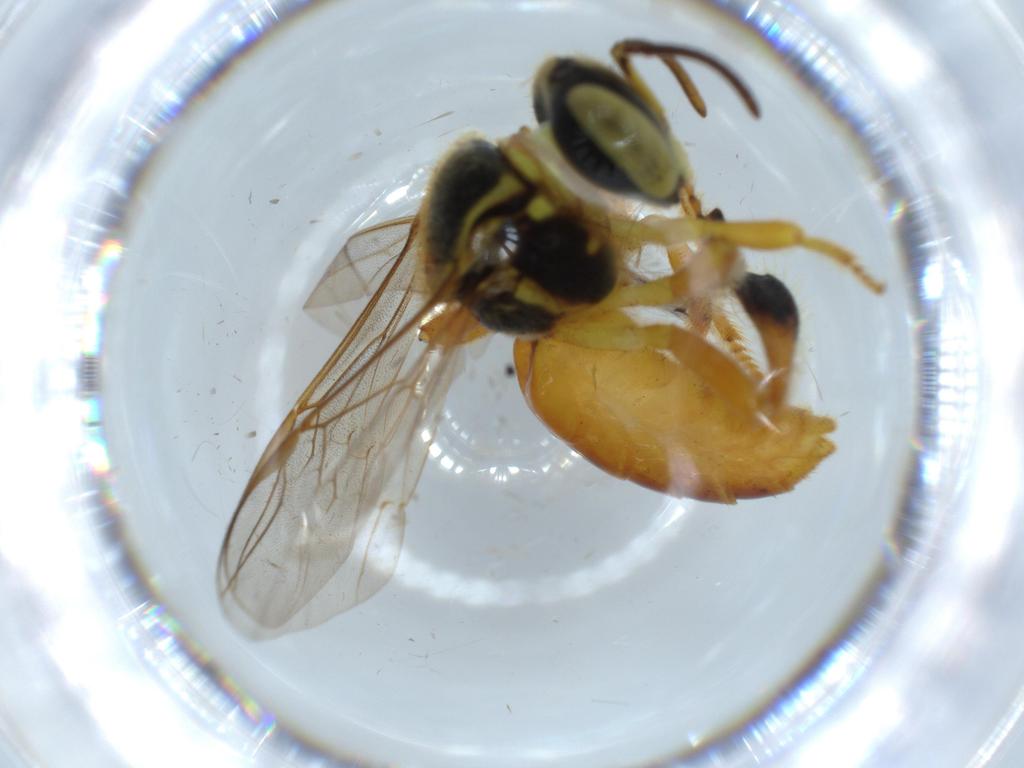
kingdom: Animalia
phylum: Arthropoda
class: Insecta
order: Hymenoptera
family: Apidae
